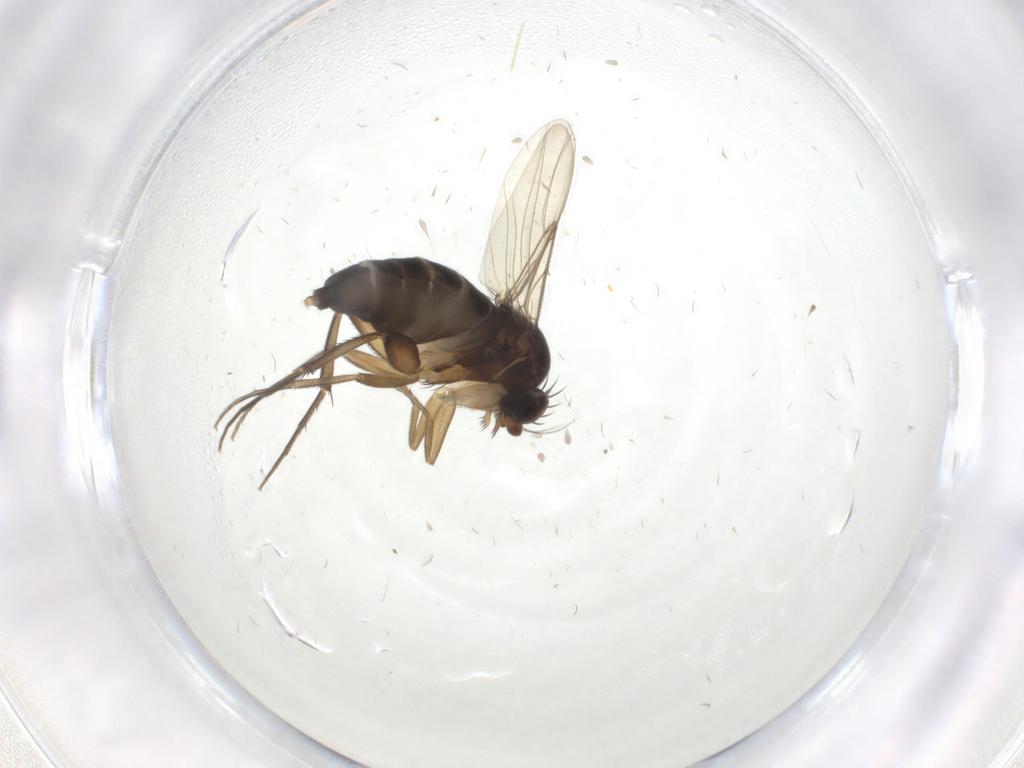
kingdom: Animalia
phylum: Arthropoda
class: Insecta
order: Diptera
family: Phoridae
